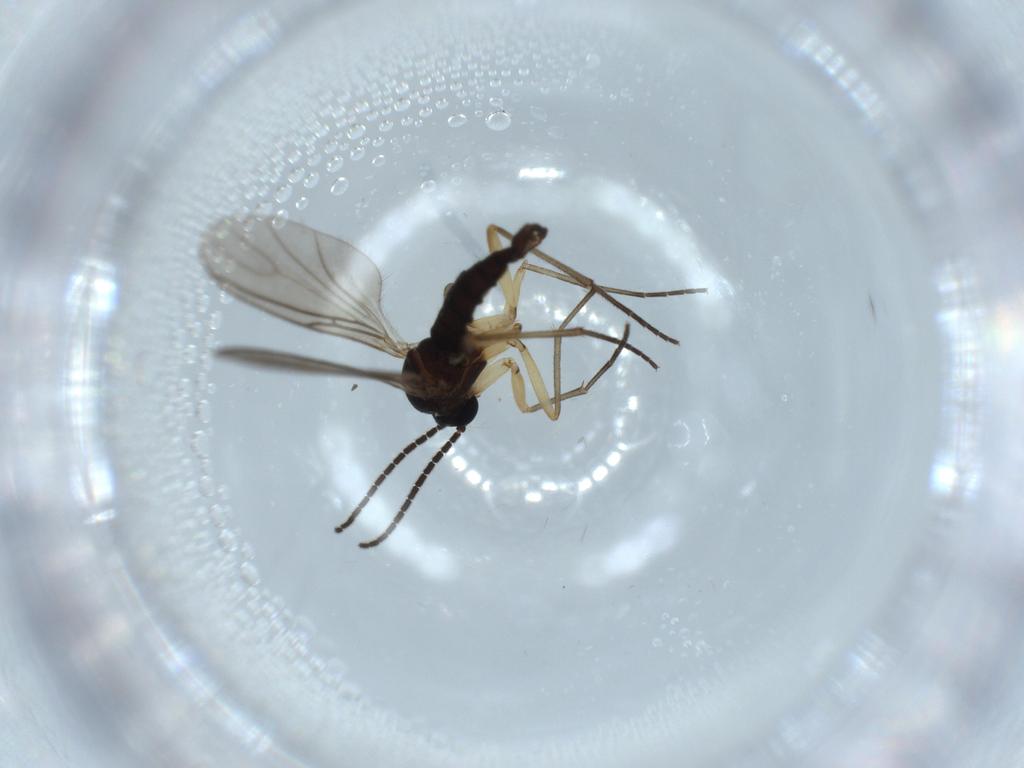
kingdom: Animalia
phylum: Arthropoda
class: Insecta
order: Diptera
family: Sciaridae
